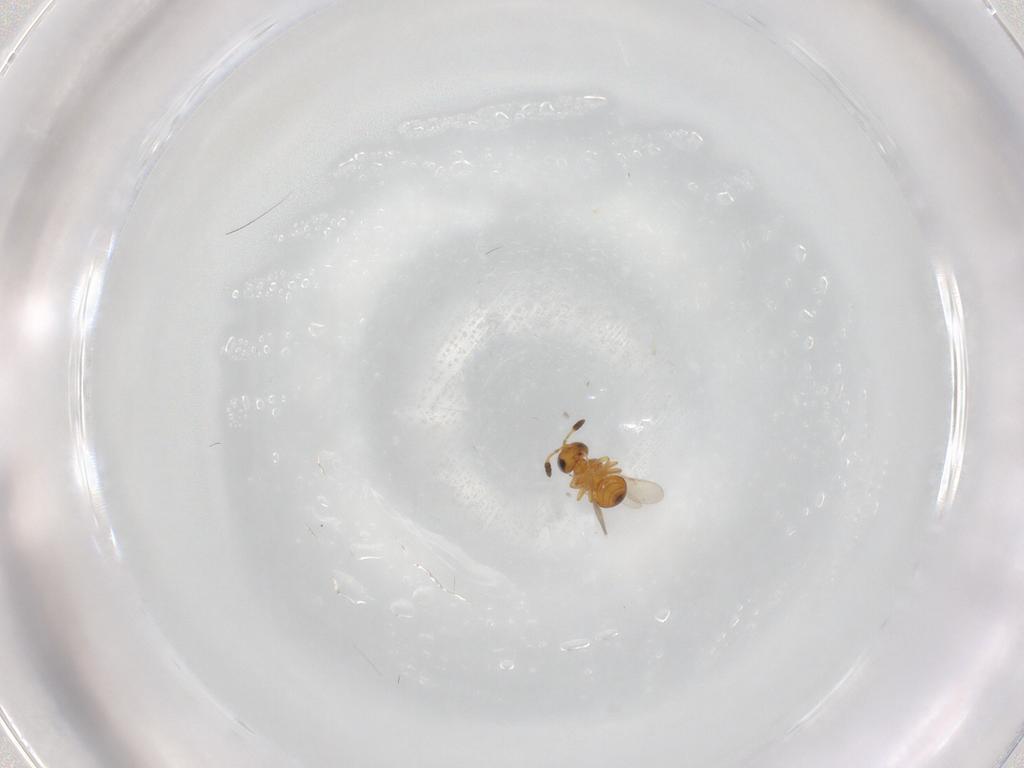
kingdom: Animalia
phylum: Arthropoda
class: Insecta
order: Hymenoptera
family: Scelionidae
